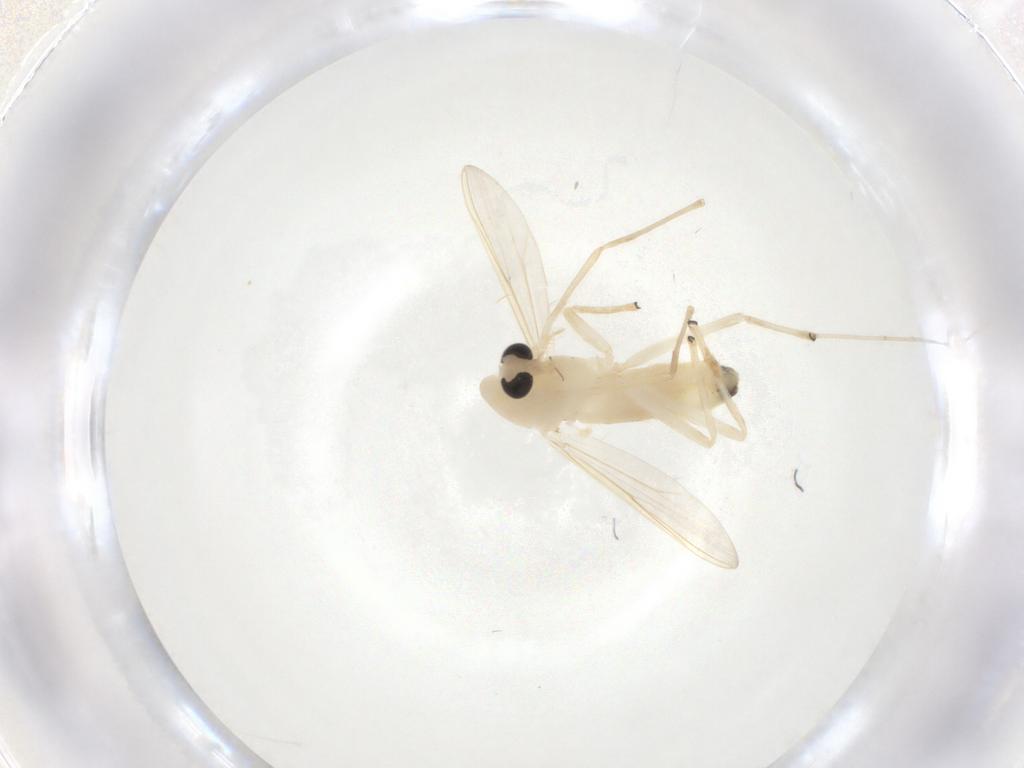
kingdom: Animalia
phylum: Arthropoda
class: Insecta
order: Diptera
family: Chironomidae
